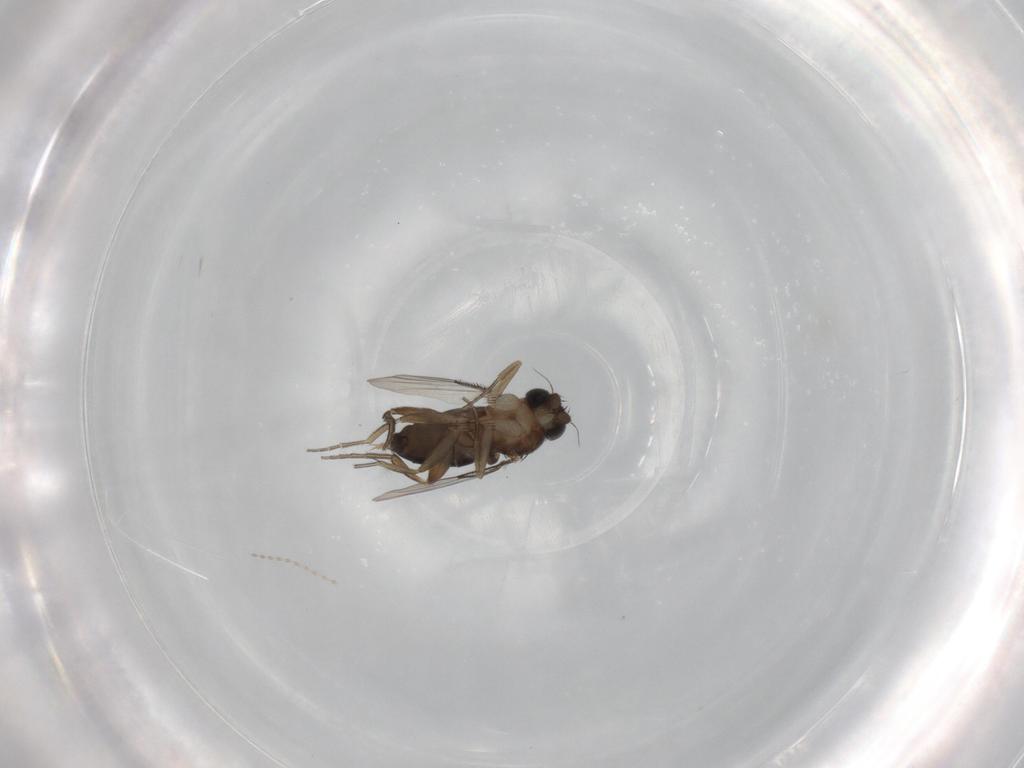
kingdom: Animalia
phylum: Arthropoda
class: Insecta
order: Diptera
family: Phoridae
